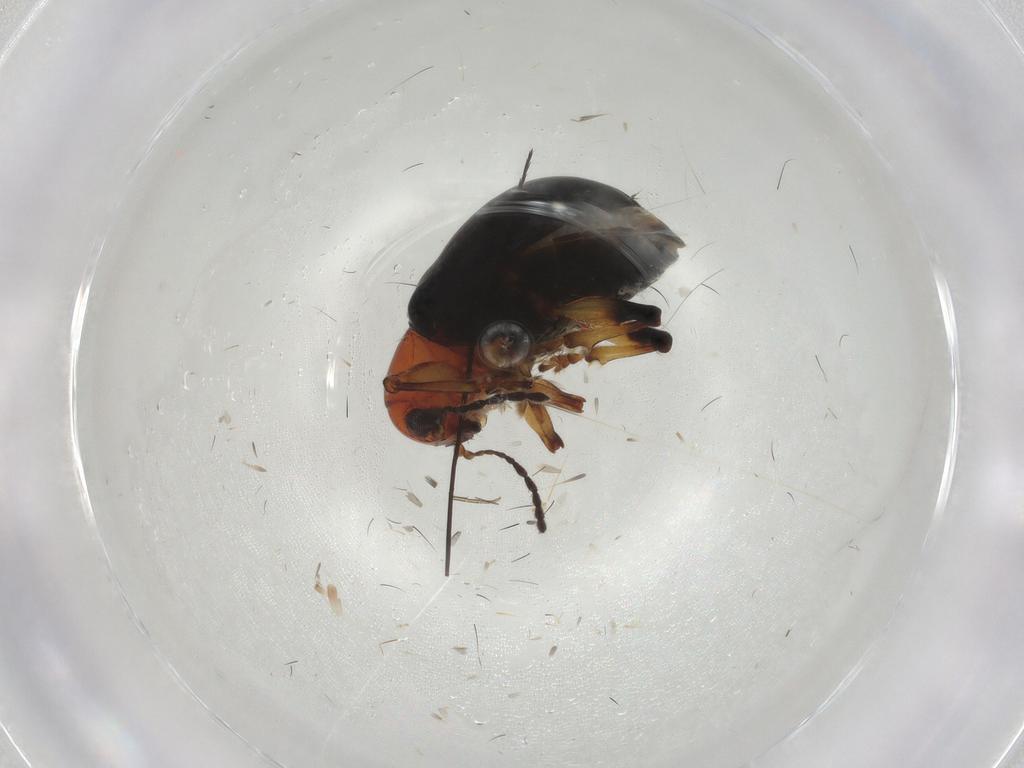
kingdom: Animalia
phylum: Arthropoda
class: Insecta
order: Coleoptera
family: Chrysomelidae
